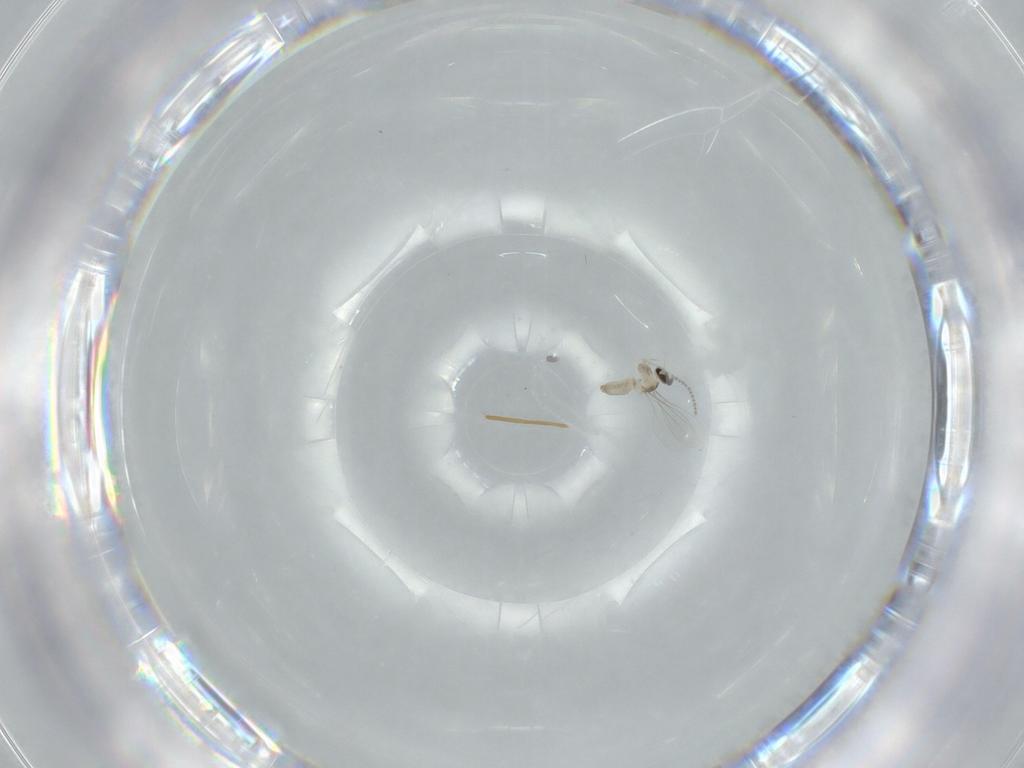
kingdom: Animalia
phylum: Arthropoda
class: Insecta
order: Diptera
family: Cecidomyiidae
